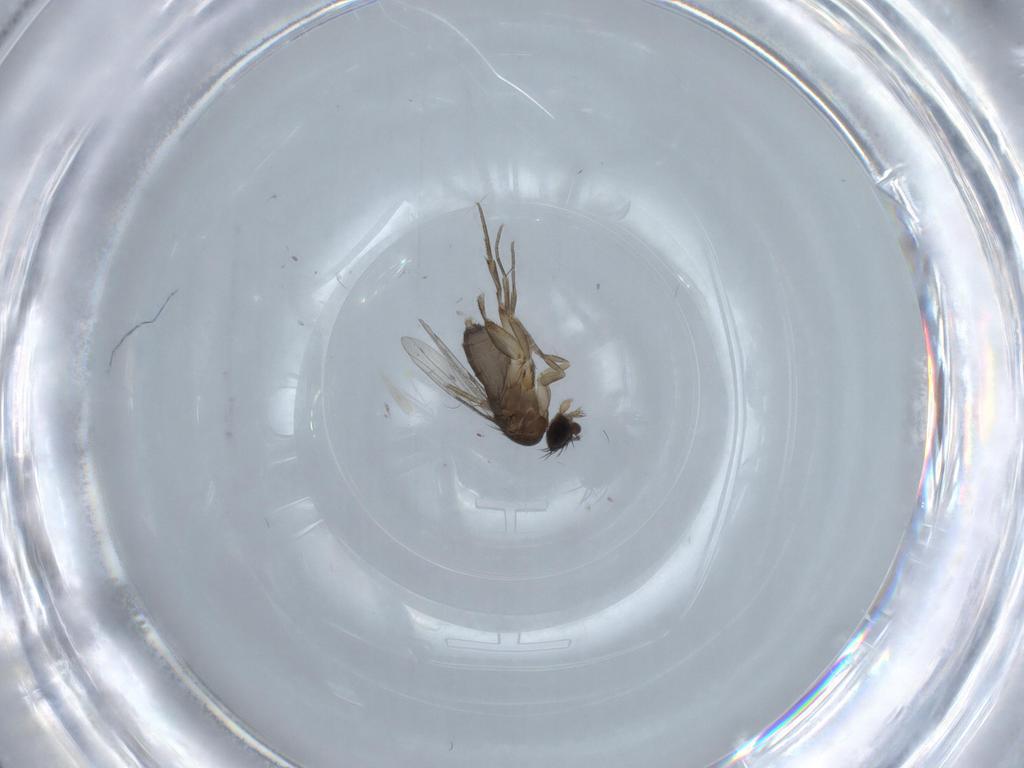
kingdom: Animalia
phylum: Arthropoda
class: Insecta
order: Diptera
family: Phoridae
